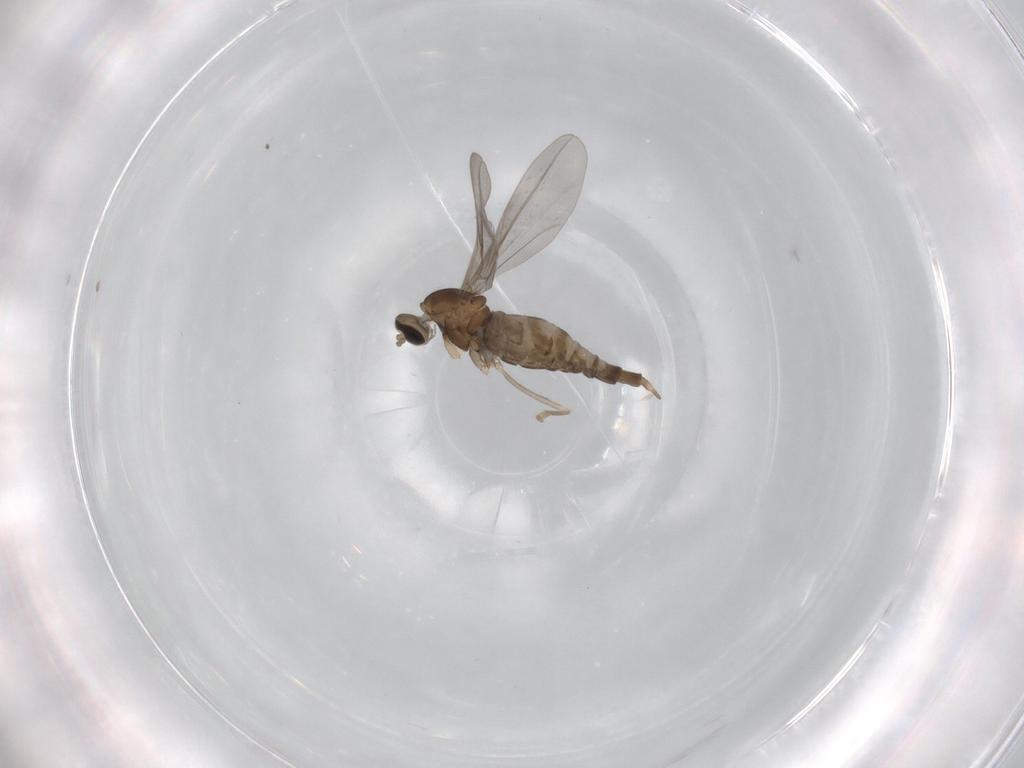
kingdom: Animalia
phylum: Arthropoda
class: Insecta
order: Diptera
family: Cecidomyiidae
